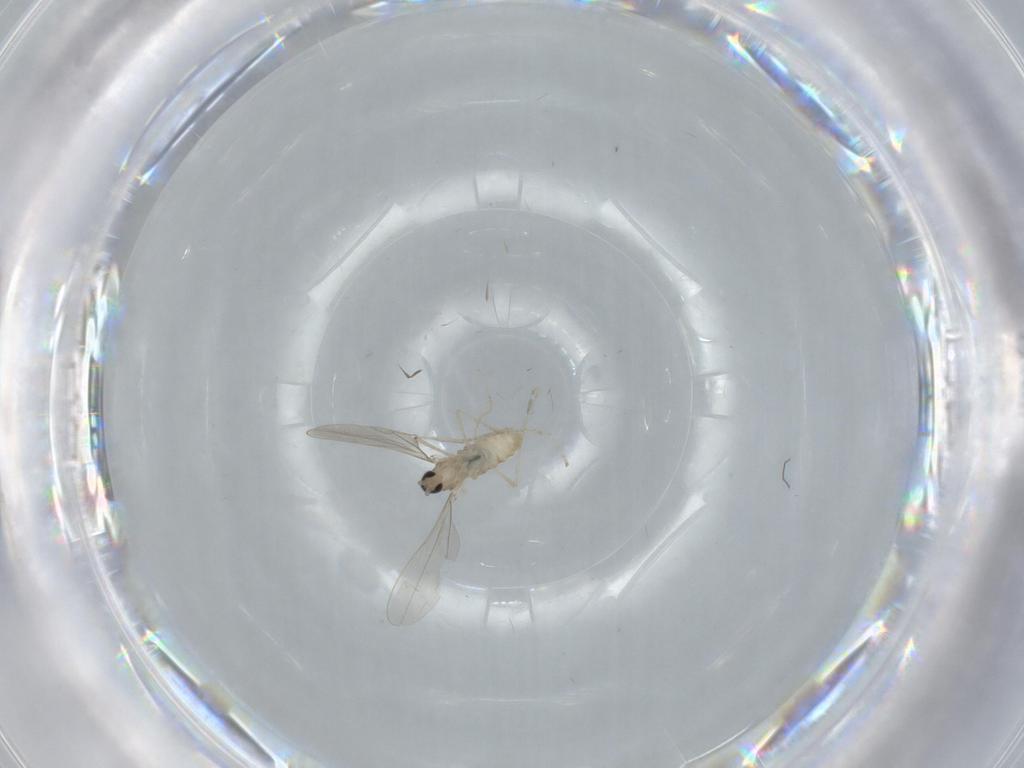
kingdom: Animalia
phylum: Arthropoda
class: Insecta
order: Diptera
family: Cecidomyiidae
